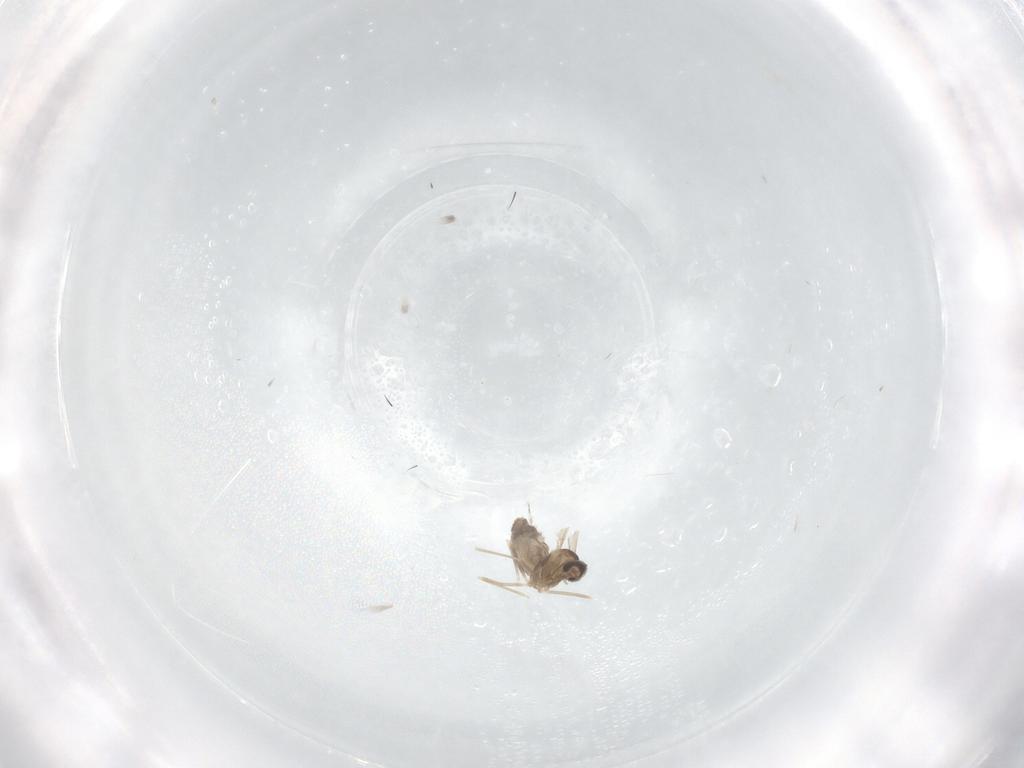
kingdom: Animalia
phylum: Arthropoda
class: Insecta
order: Diptera
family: Cecidomyiidae
